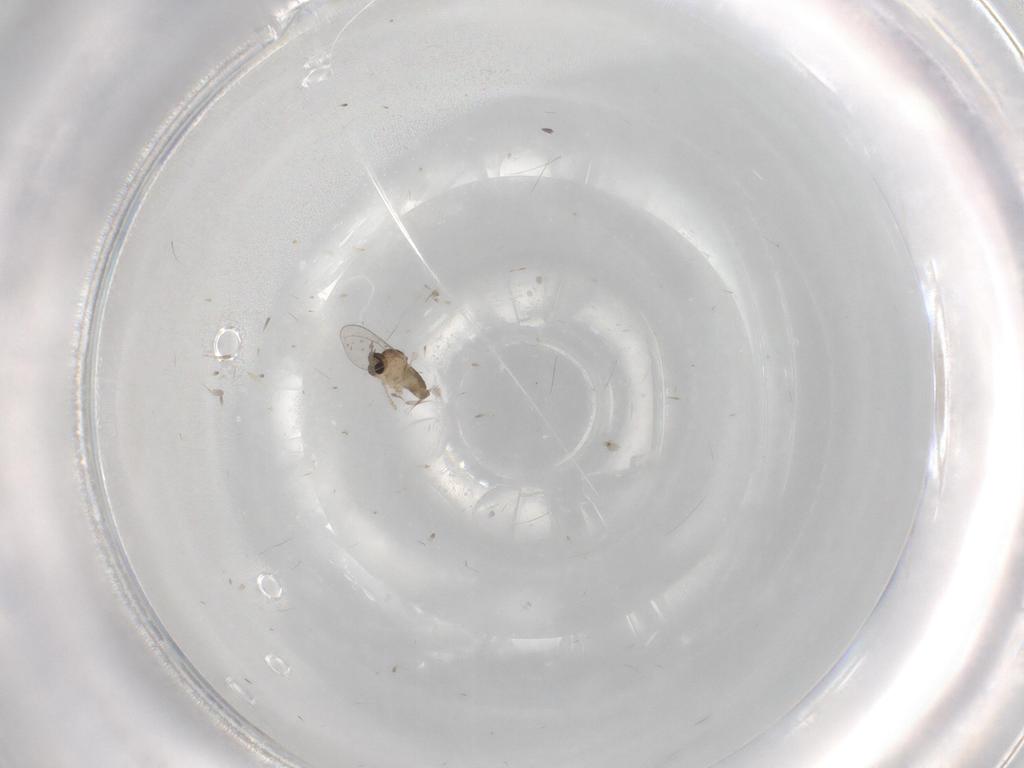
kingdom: Animalia
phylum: Arthropoda
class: Insecta
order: Diptera
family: Cecidomyiidae
